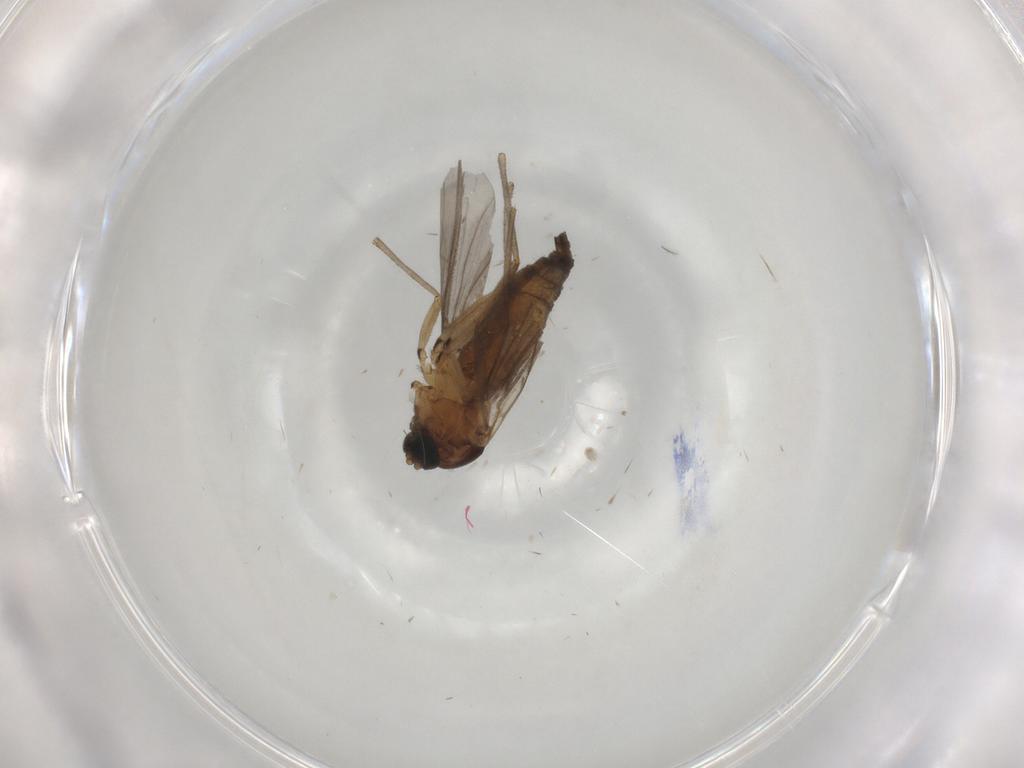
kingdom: Animalia
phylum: Arthropoda
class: Insecta
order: Diptera
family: Sciaridae
